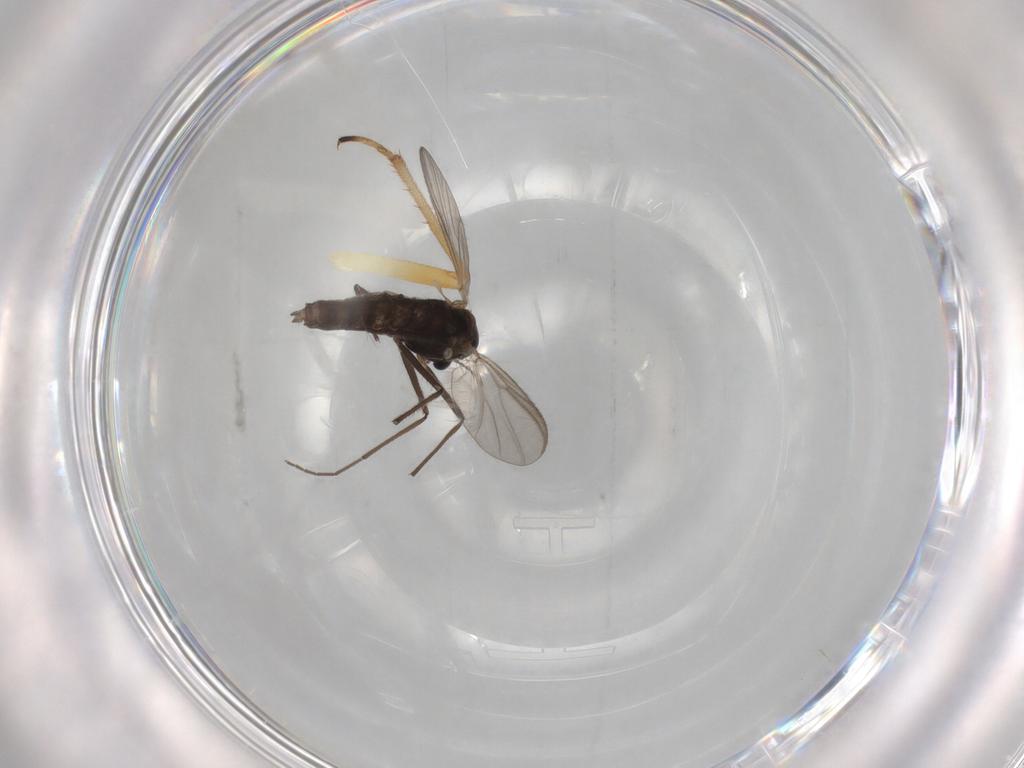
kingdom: Animalia
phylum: Arthropoda
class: Insecta
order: Diptera
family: Chironomidae
